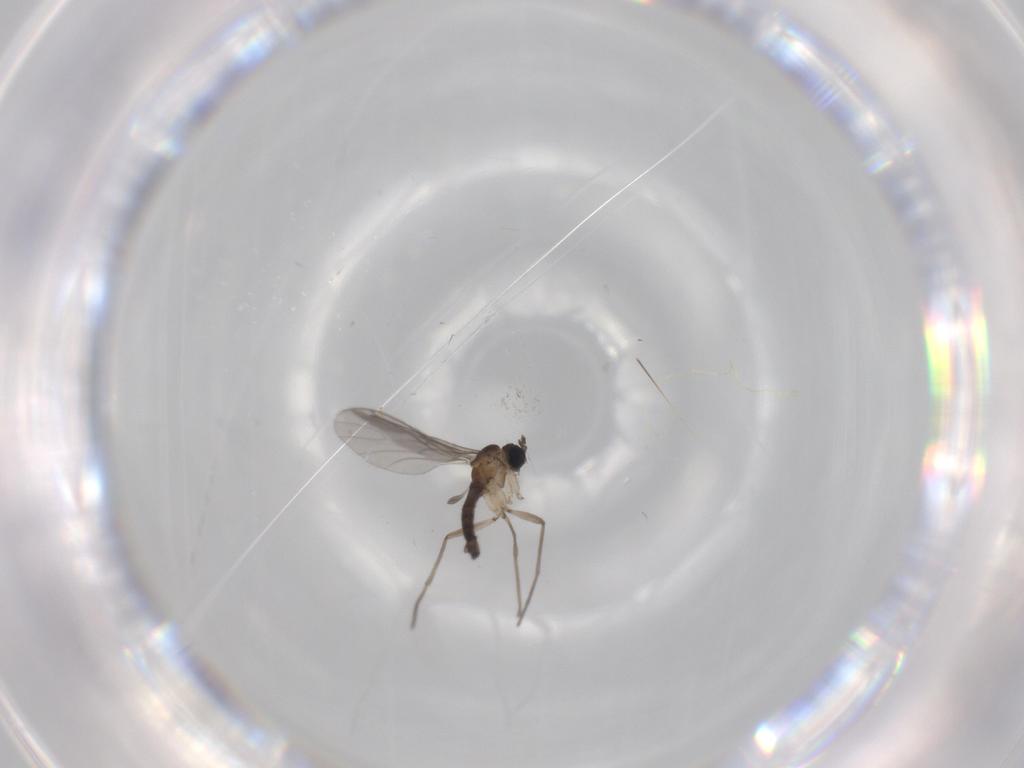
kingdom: Animalia
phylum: Arthropoda
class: Insecta
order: Diptera
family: Sciaridae
